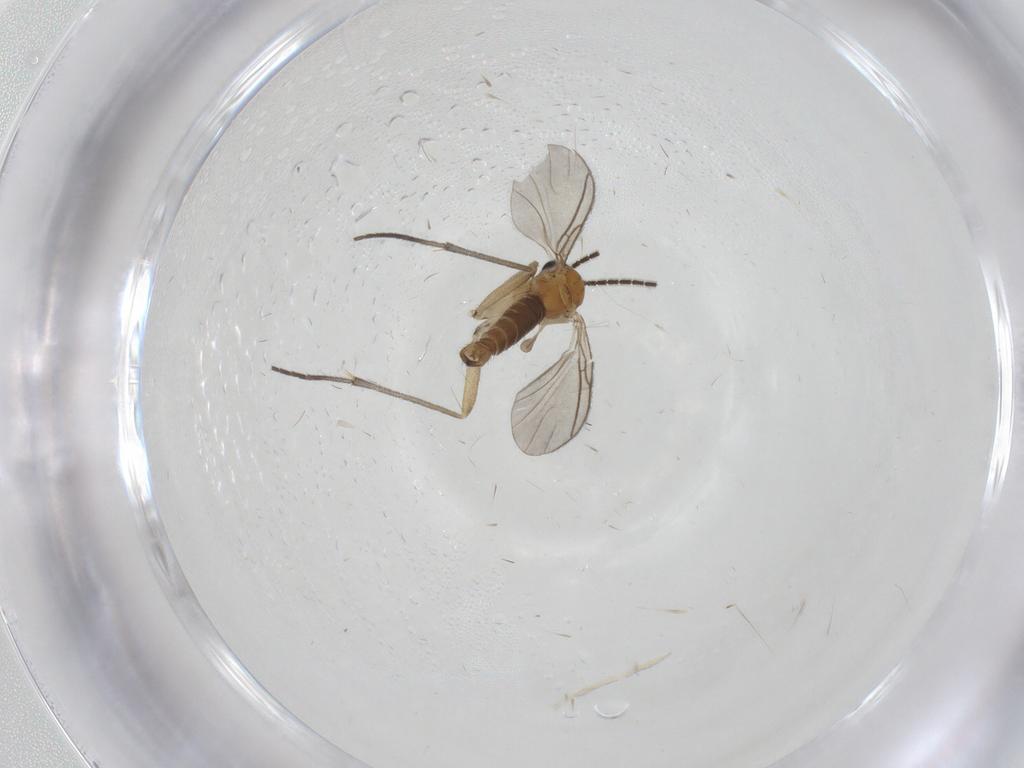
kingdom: Animalia
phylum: Arthropoda
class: Insecta
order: Diptera
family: Sciaridae
